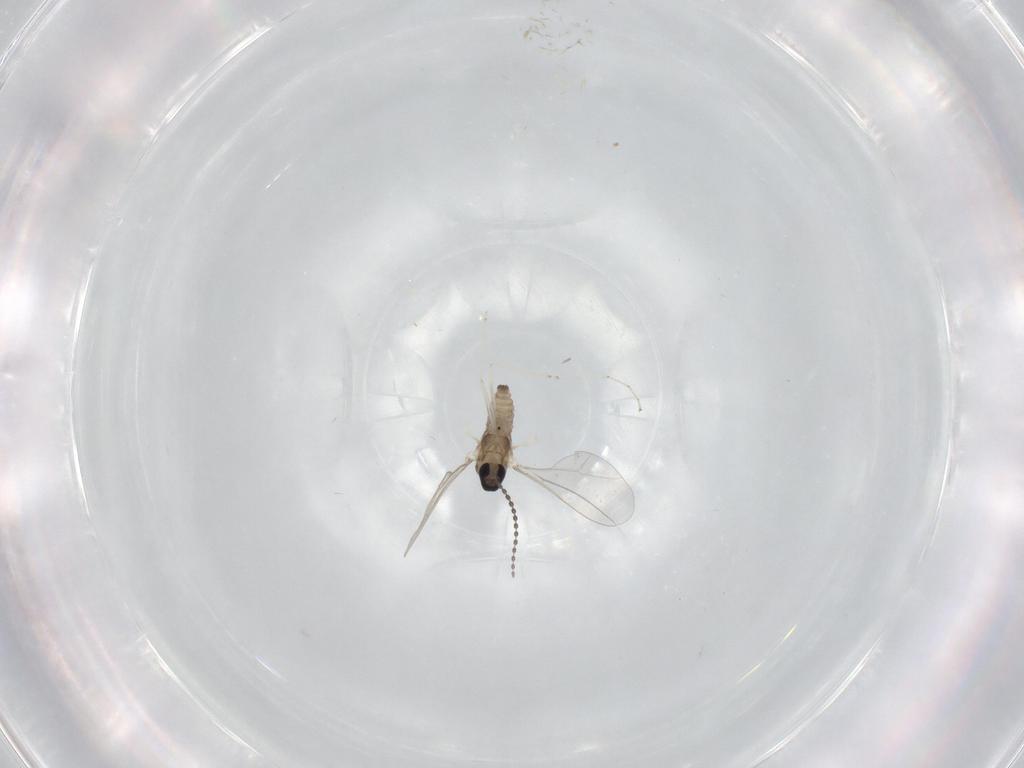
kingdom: Animalia
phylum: Arthropoda
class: Insecta
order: Diptera
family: Cecidomyiidae
